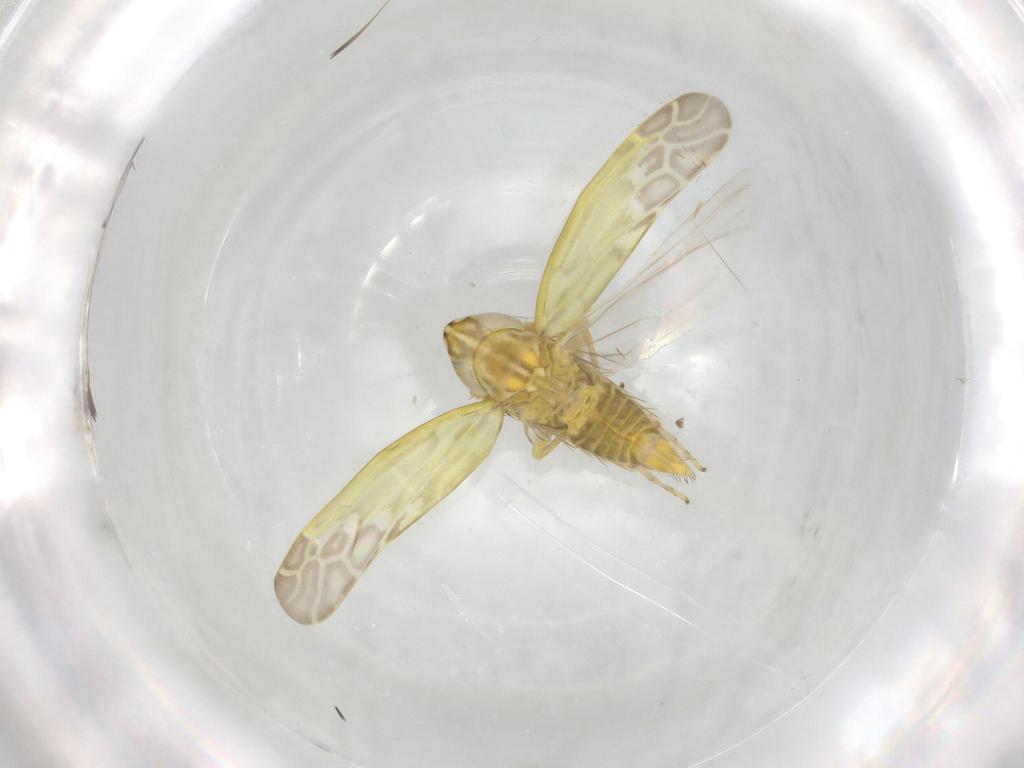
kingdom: Animalia
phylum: Arthropoda
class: Insecta
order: Hemiptera
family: Cicadellidae
